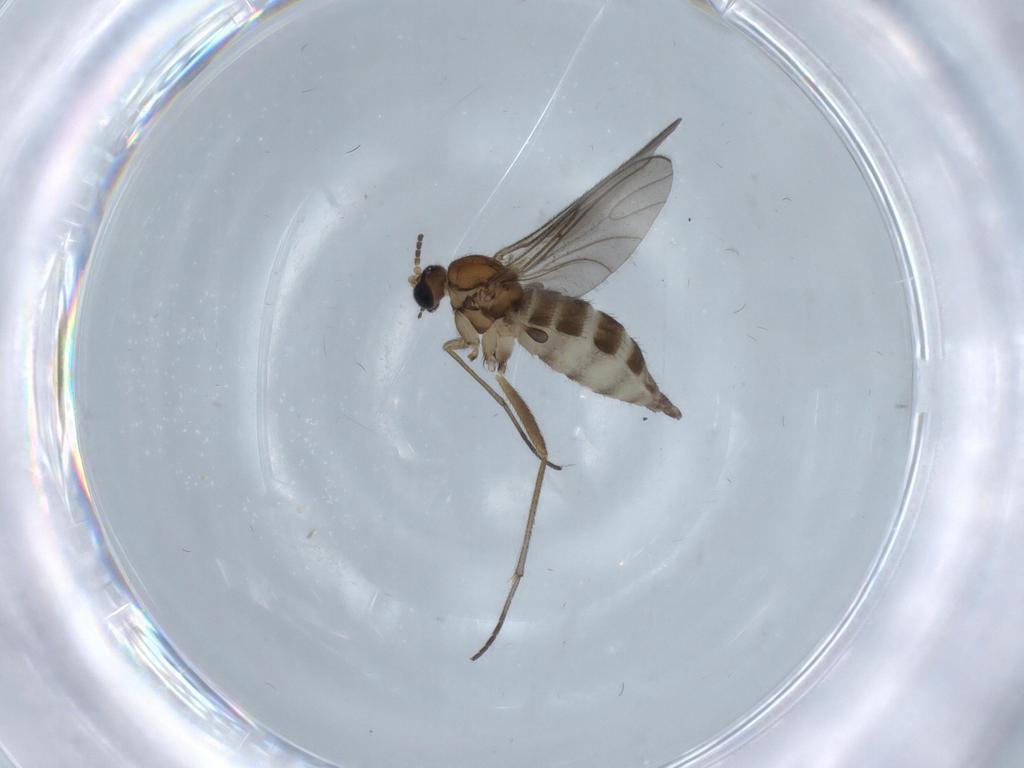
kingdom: Animalia
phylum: Arthropoda
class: Insecta
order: Diptera
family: Sciaridae
